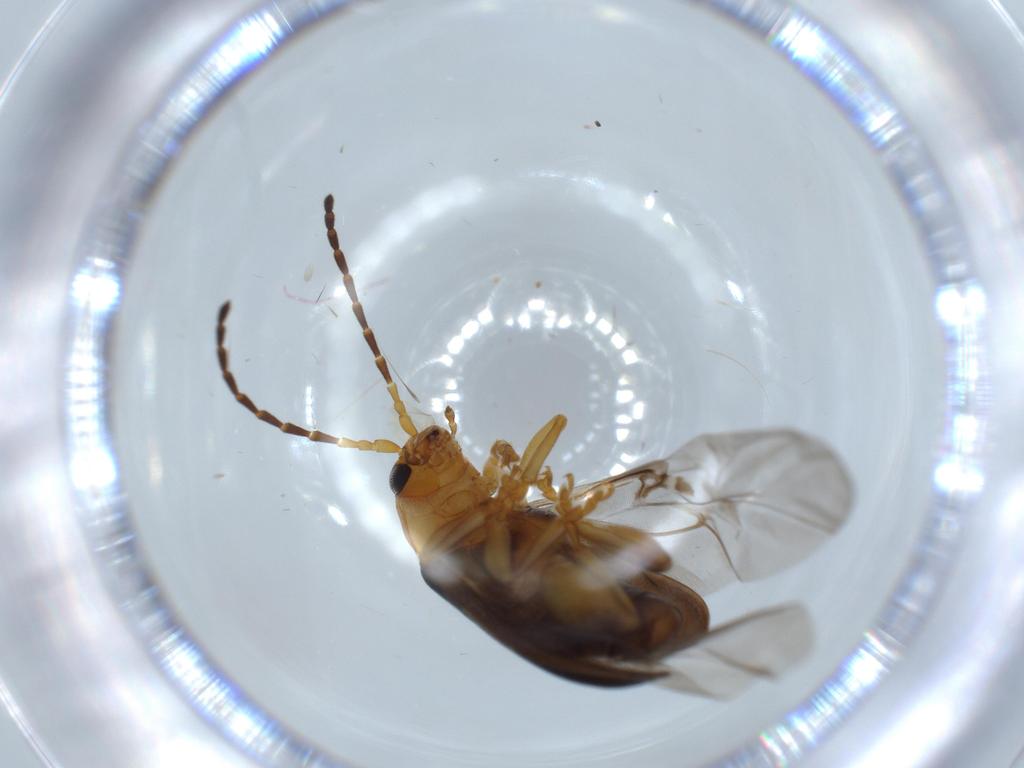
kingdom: Animalia
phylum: Arthropoda
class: Insecta
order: Coleoptera
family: Chrysomelidae
